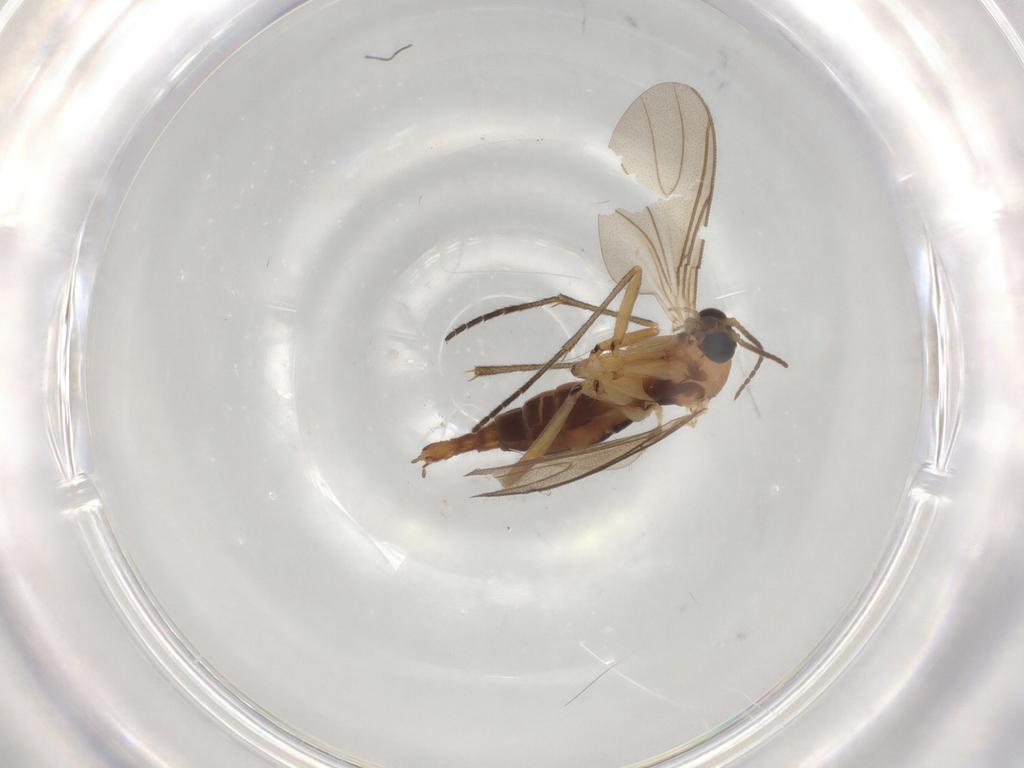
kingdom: Animalia
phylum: Arthropoda
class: Insecta
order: Diptera
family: Sciaridae
